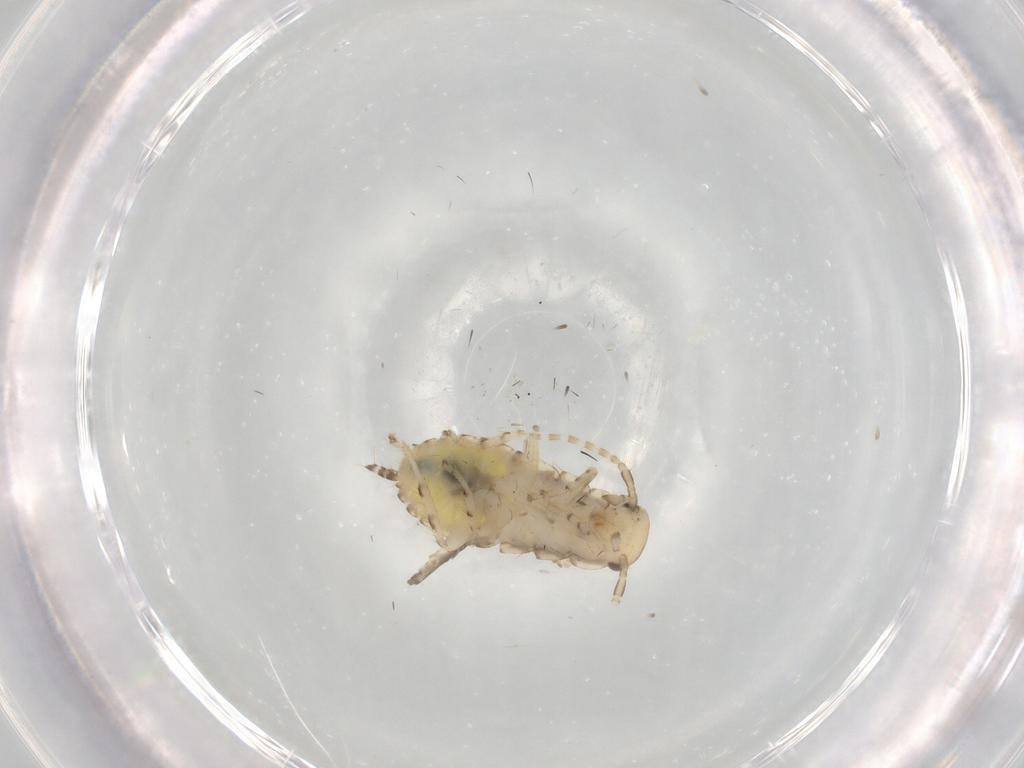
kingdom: Animalia
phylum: Arthropoda
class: Insecta
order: Blattodea
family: Ectobiidae
